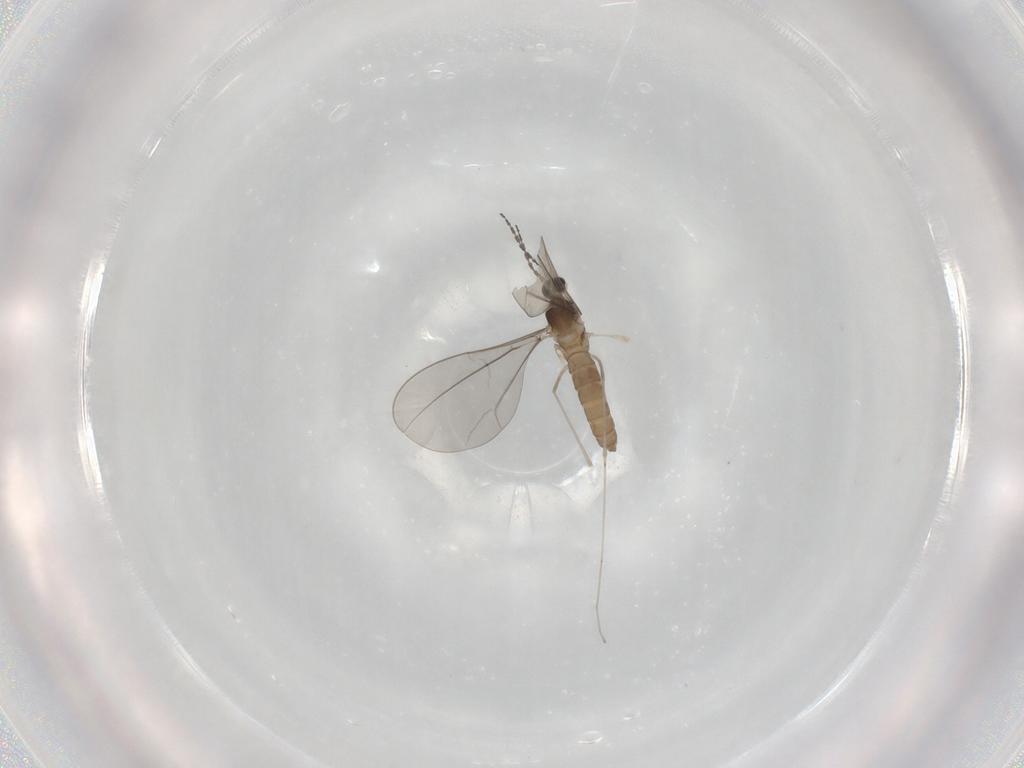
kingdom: Animalia
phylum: Arthropoda
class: Insecta
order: Diptera
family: Cecidomyiidae
